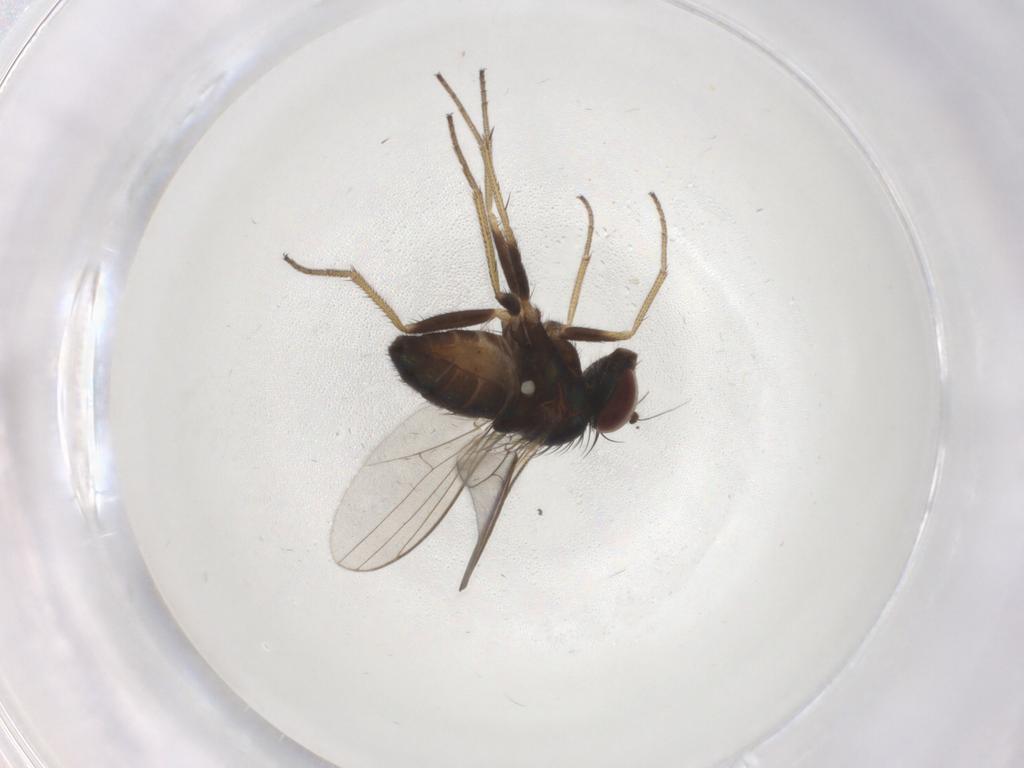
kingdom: Animalia
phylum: Arthropoda
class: Insecta
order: Diptera
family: Dolichopodidae
